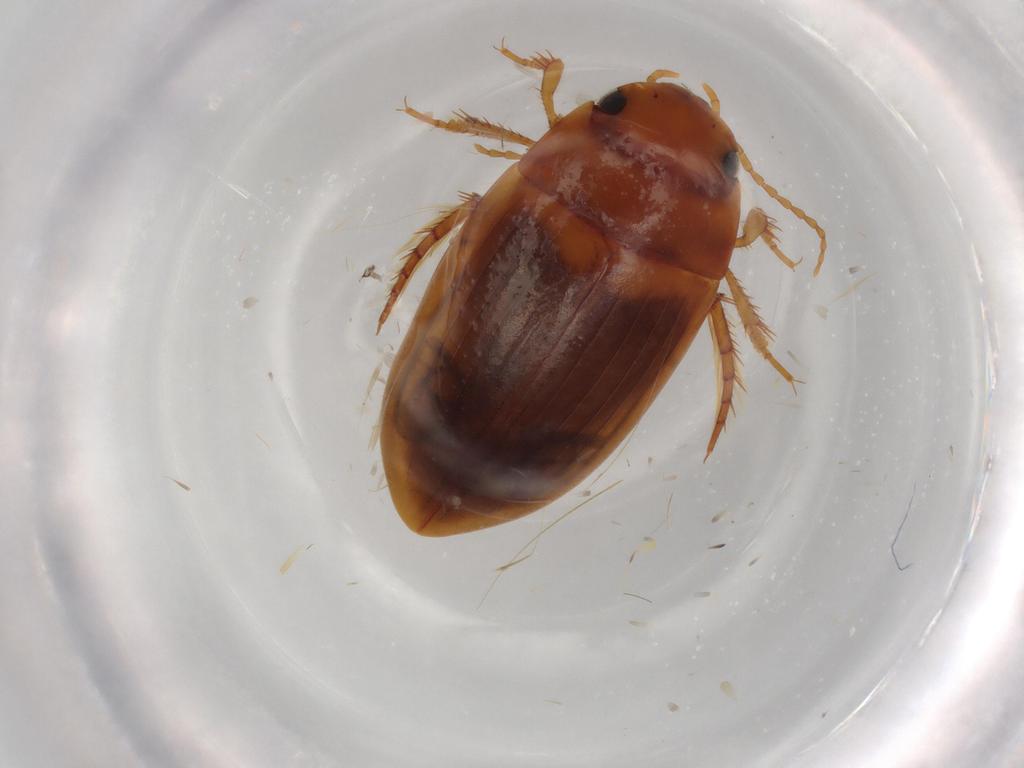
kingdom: Animalia
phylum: Arthropoda
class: Insecta
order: Coleoptera
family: Dytiscidae
